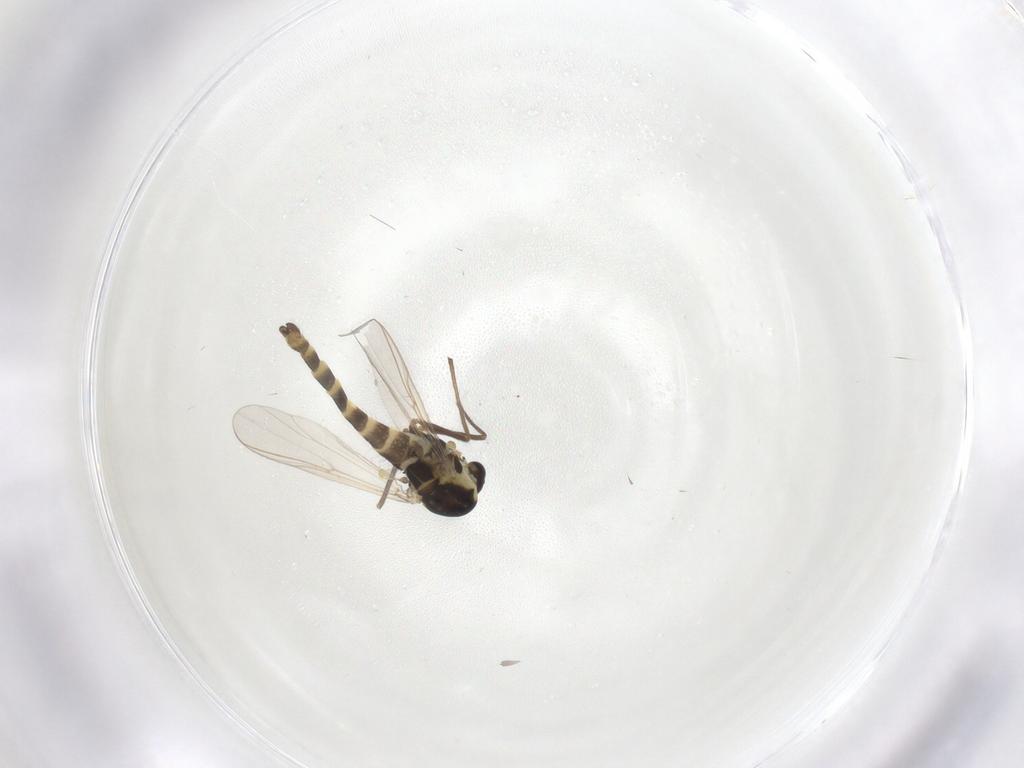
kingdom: Animalia
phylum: Arthropoda
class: Insecta
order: Diptera
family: Chironomidae
